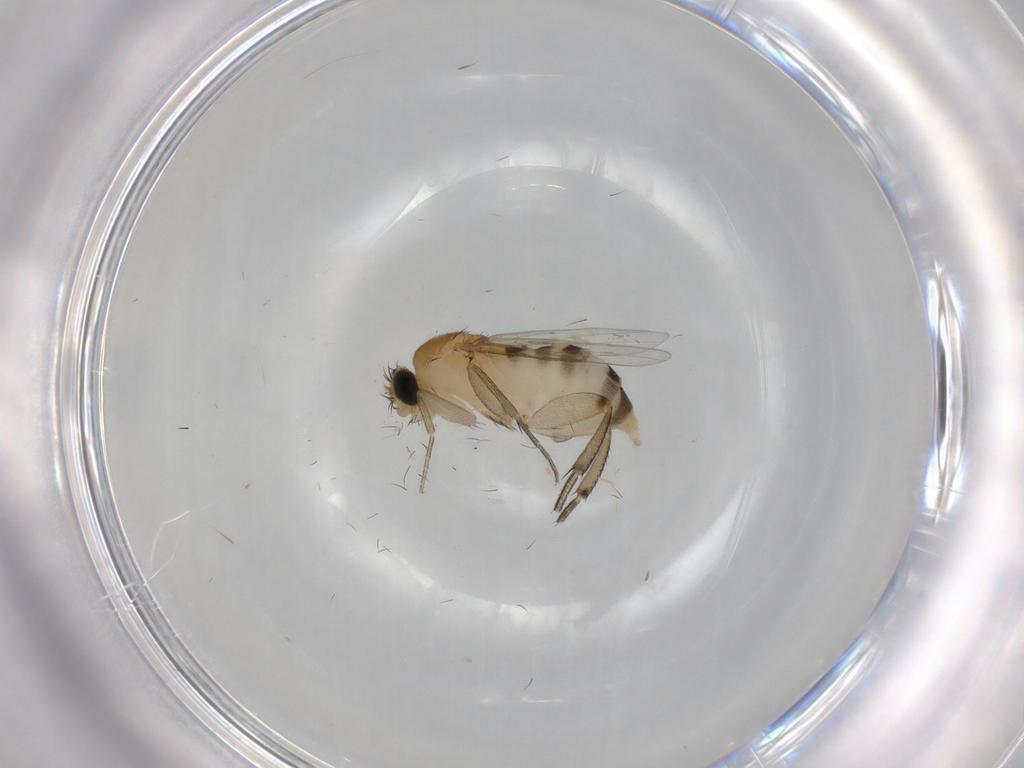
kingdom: Animalia
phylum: Arthropoda
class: Insecta
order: Diptera
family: Phoridae
